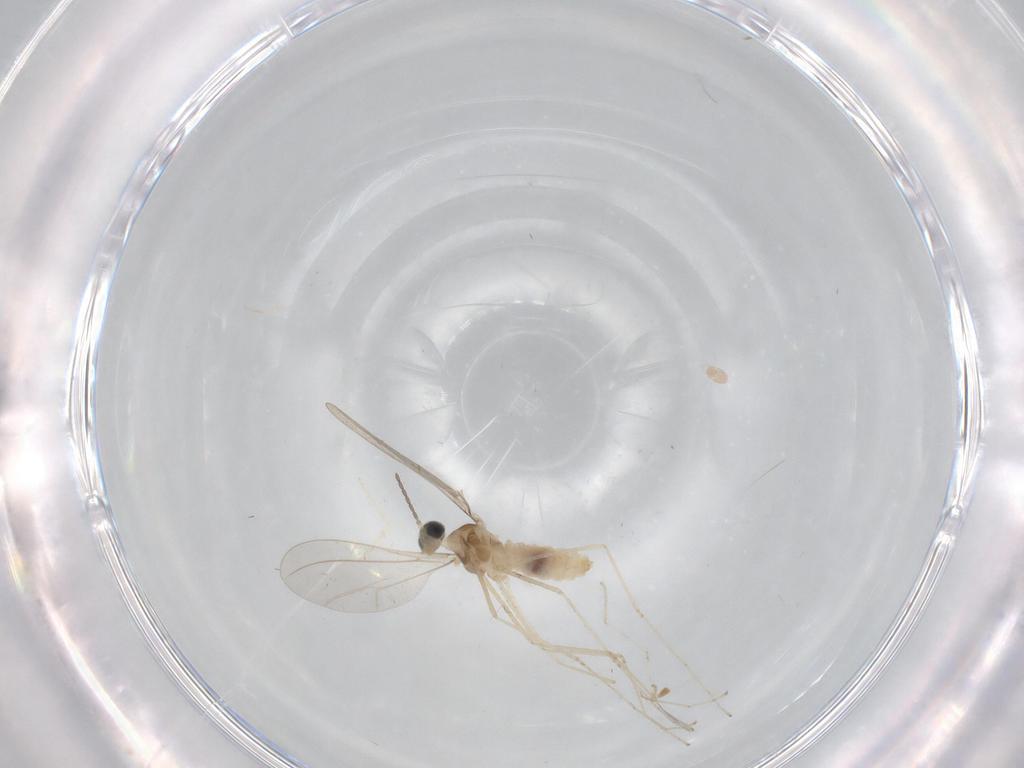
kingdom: Animalia
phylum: Arthropoda
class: Insecta
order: Diptera
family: Cecidomyiidae
